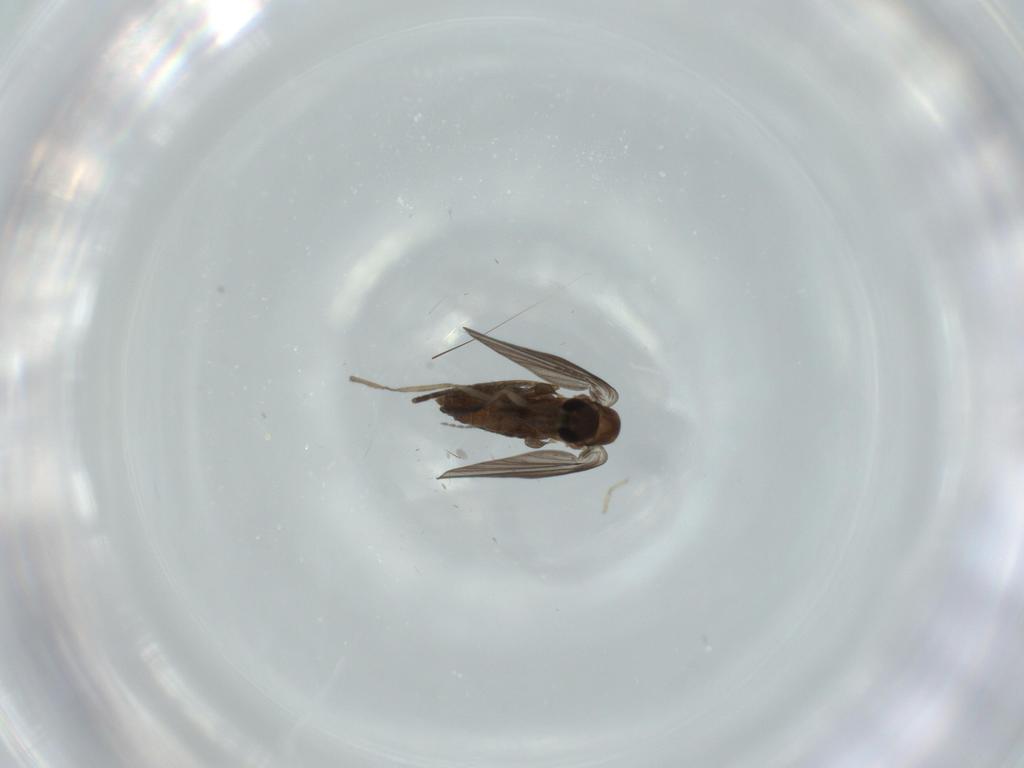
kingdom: Animalia
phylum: Arthropoda
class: Insecta
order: Diptera
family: Psychodidae
